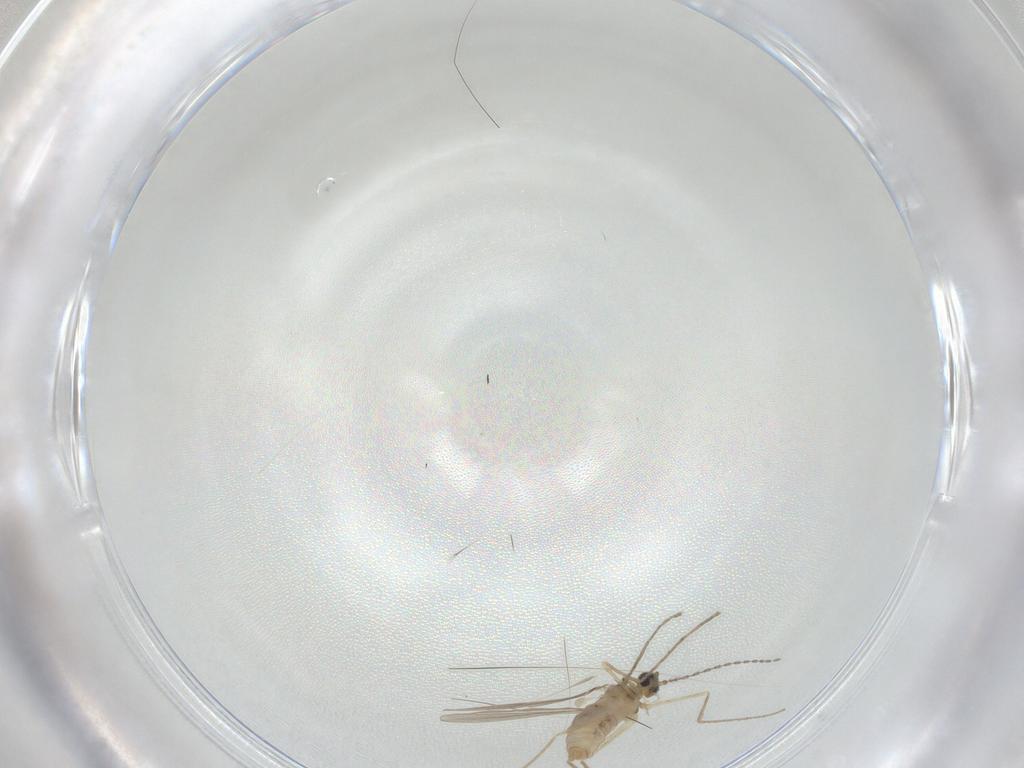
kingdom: Animalia
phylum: Arthropoda
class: Insecta
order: Diptera
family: Cecidomyiidae
